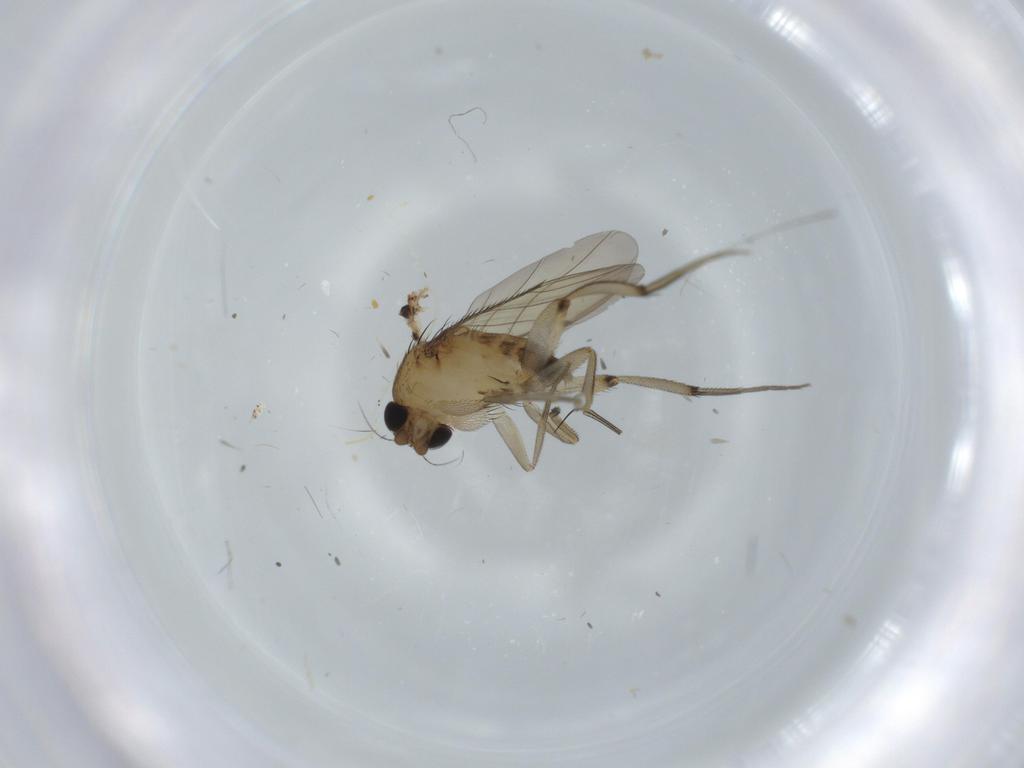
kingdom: Animalia
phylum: Arthropoda
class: Insecta
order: Diptera
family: Phoridae
